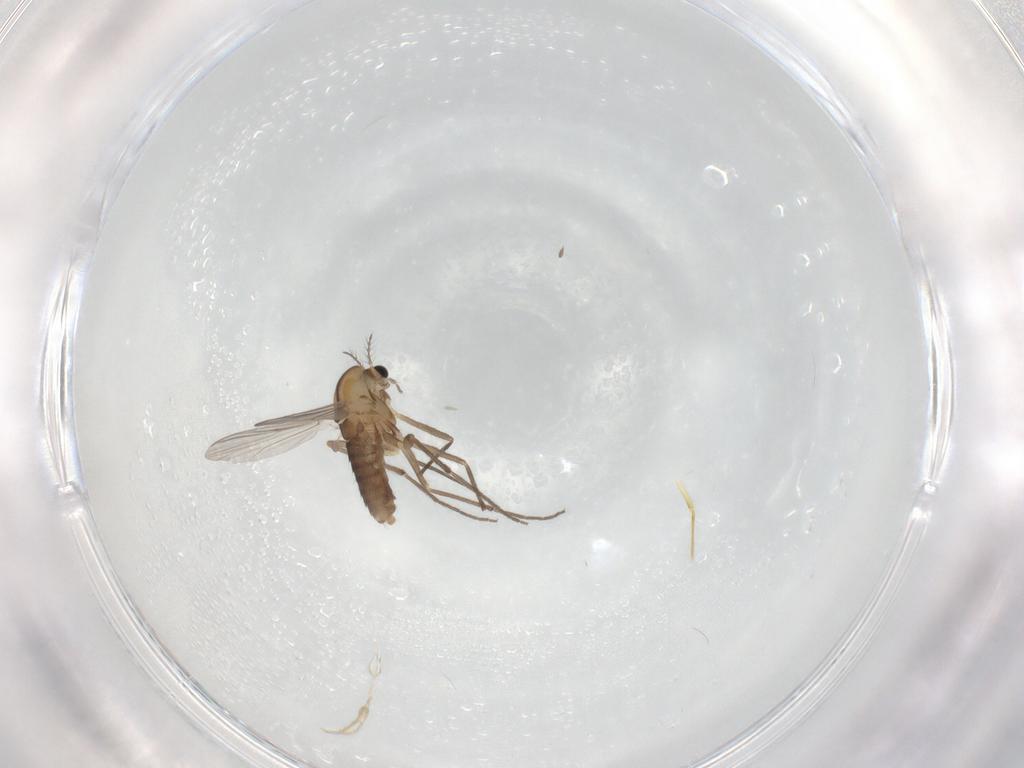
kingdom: Animalia
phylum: Arthropoda
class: Insecta
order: Diptera
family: Chironomidae
